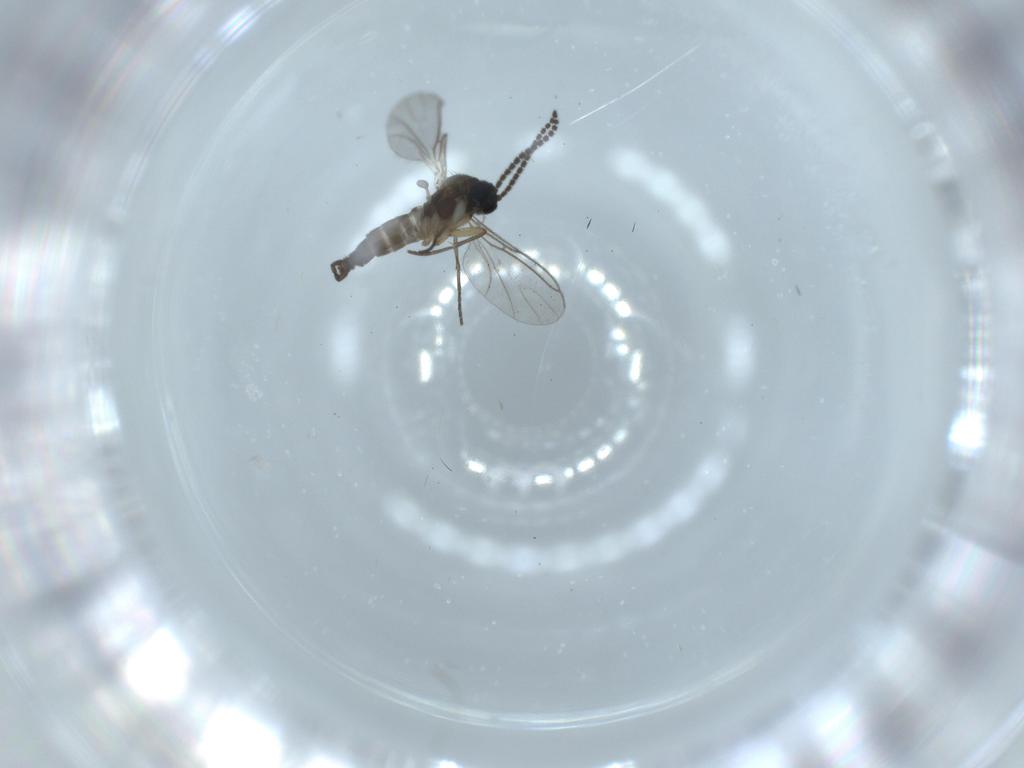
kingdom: Animalia
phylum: Arthropoda
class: Insecta
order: Diptera
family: Sciaridae
